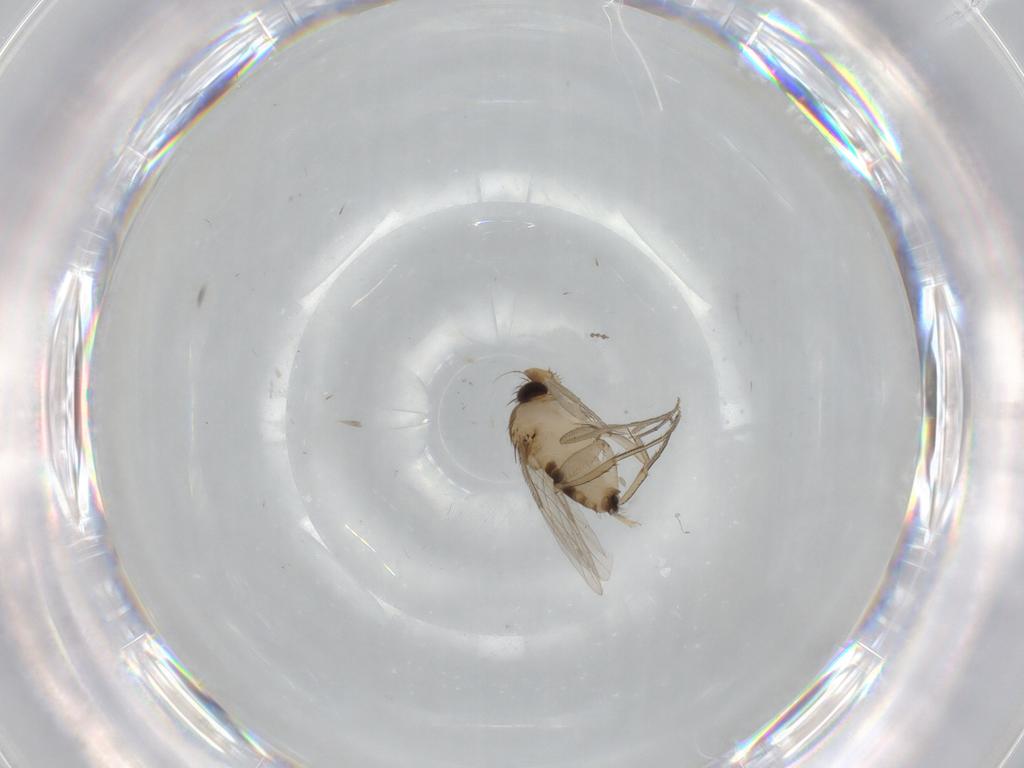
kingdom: Animalia
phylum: Arthropoda
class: Insecta
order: Diptera
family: Phoridae
